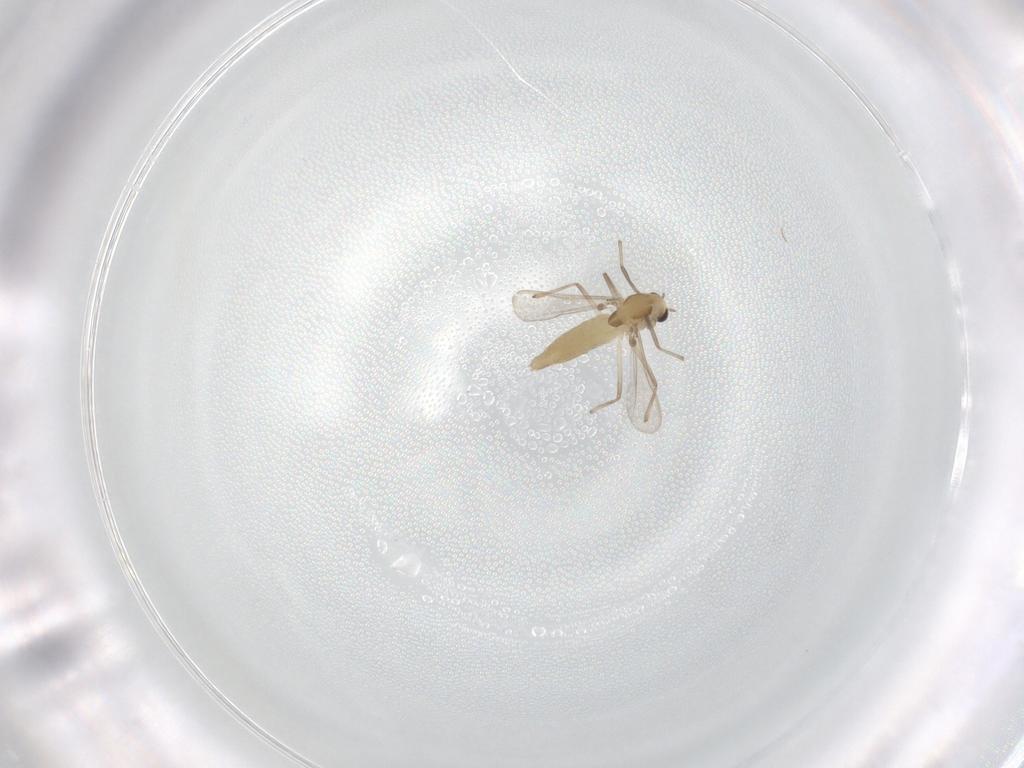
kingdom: Animalia
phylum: Arthropoda
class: Insecta
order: Diptera
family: Chironomidae
